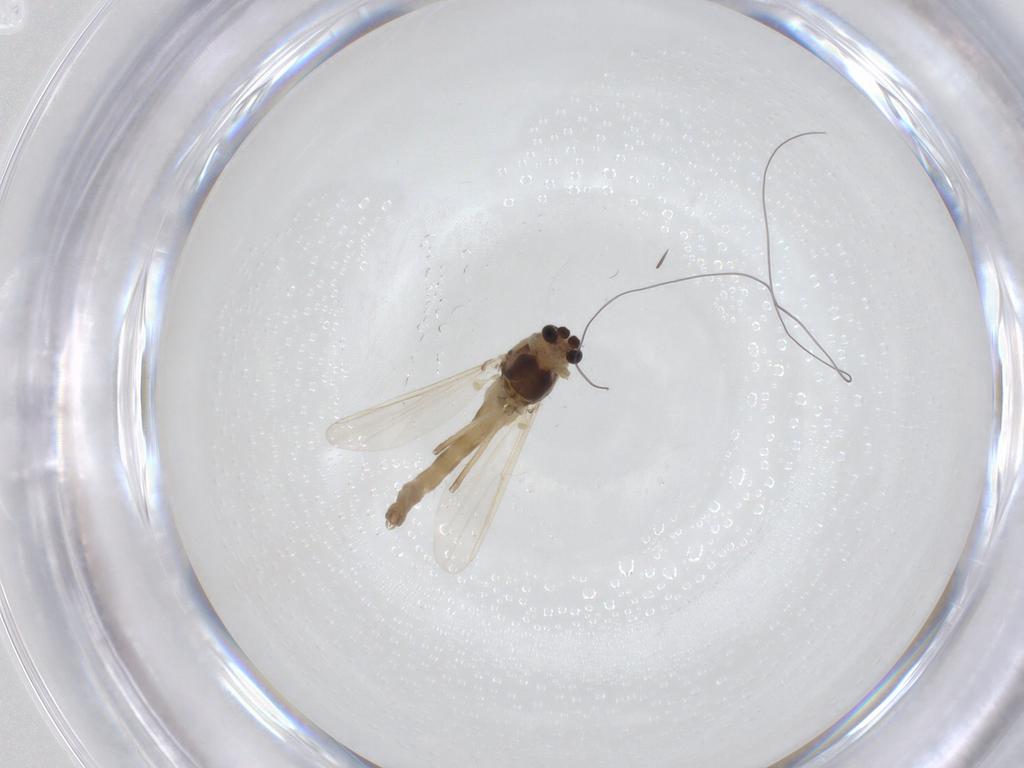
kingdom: Animalia
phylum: Arthropoda
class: Insecta
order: Diptera
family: Chironomidae
